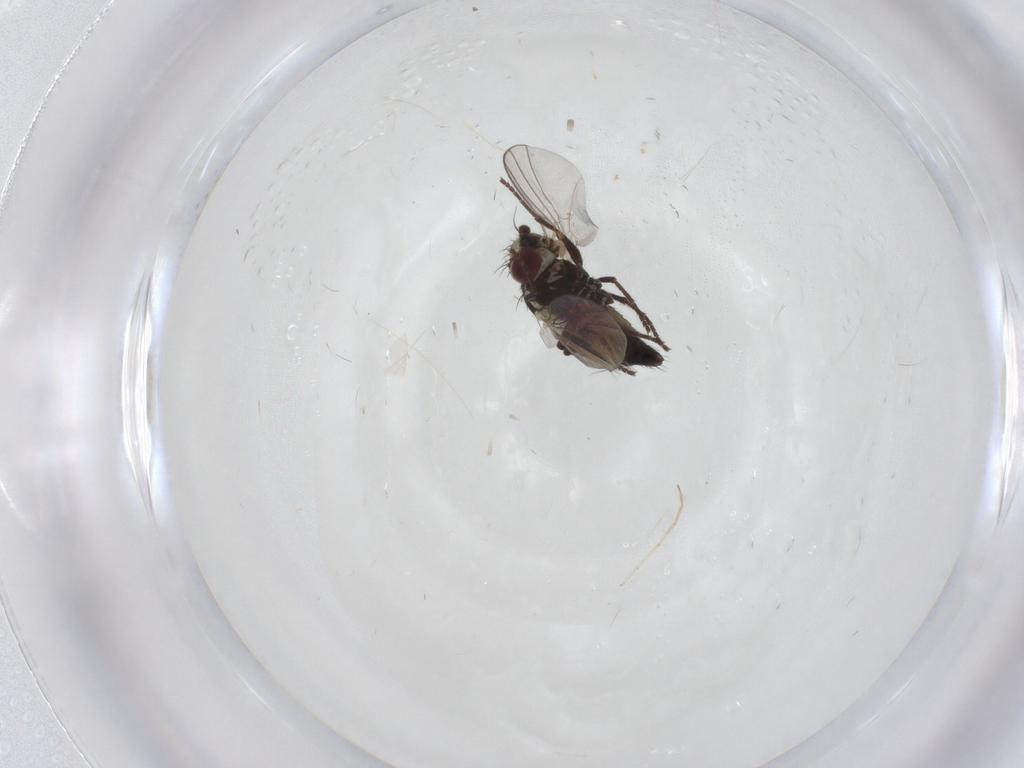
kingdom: Animalia
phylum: Arthropoda
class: Insecta
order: Diptera
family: Agromyzidae
